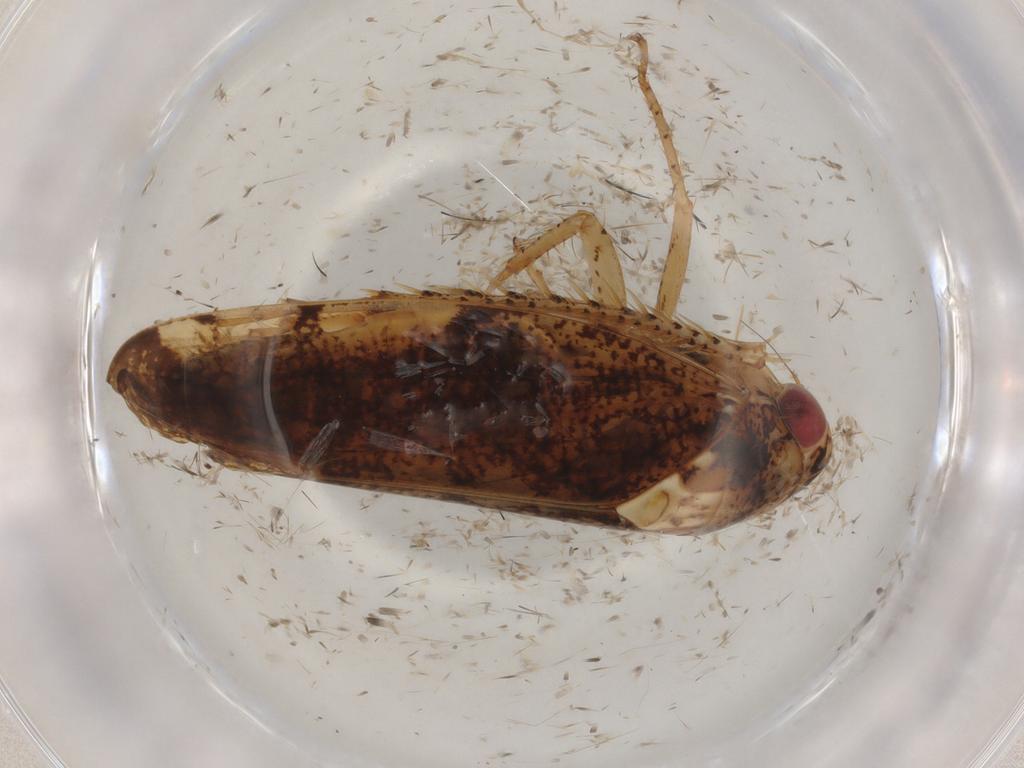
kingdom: Animalia
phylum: Arthropoda
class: Insecta
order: Hemiptera
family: Cicadellidae
